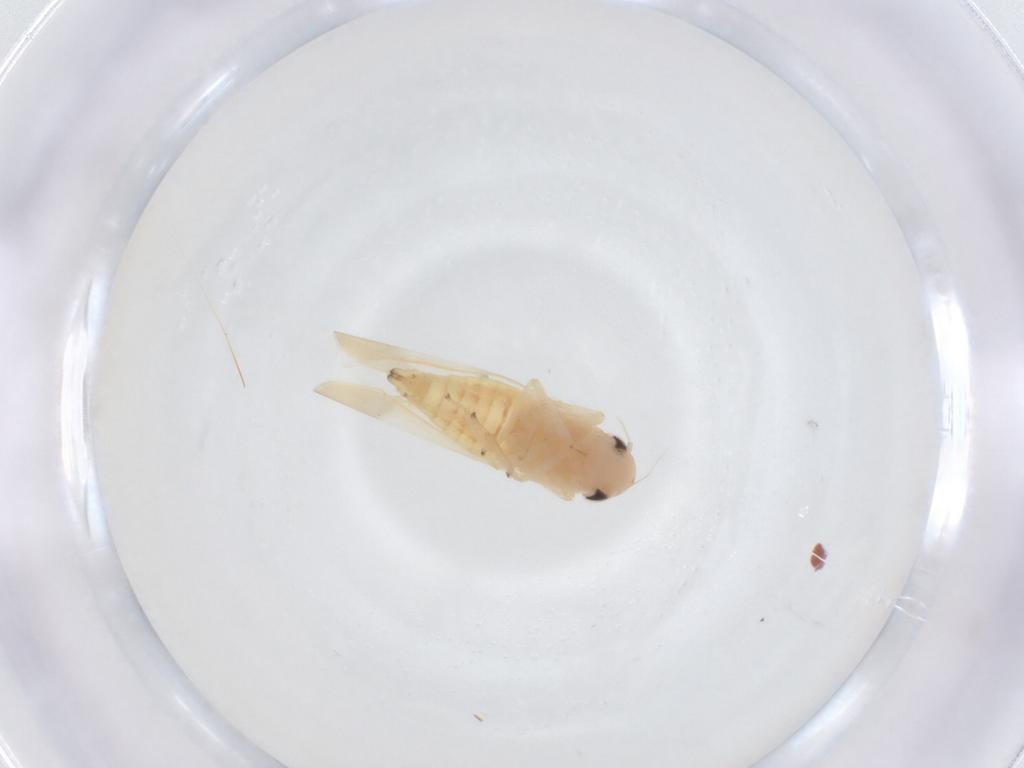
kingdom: Animalia
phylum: Arthropoda
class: Insecta
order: Hemiptera
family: Cicadellidae
